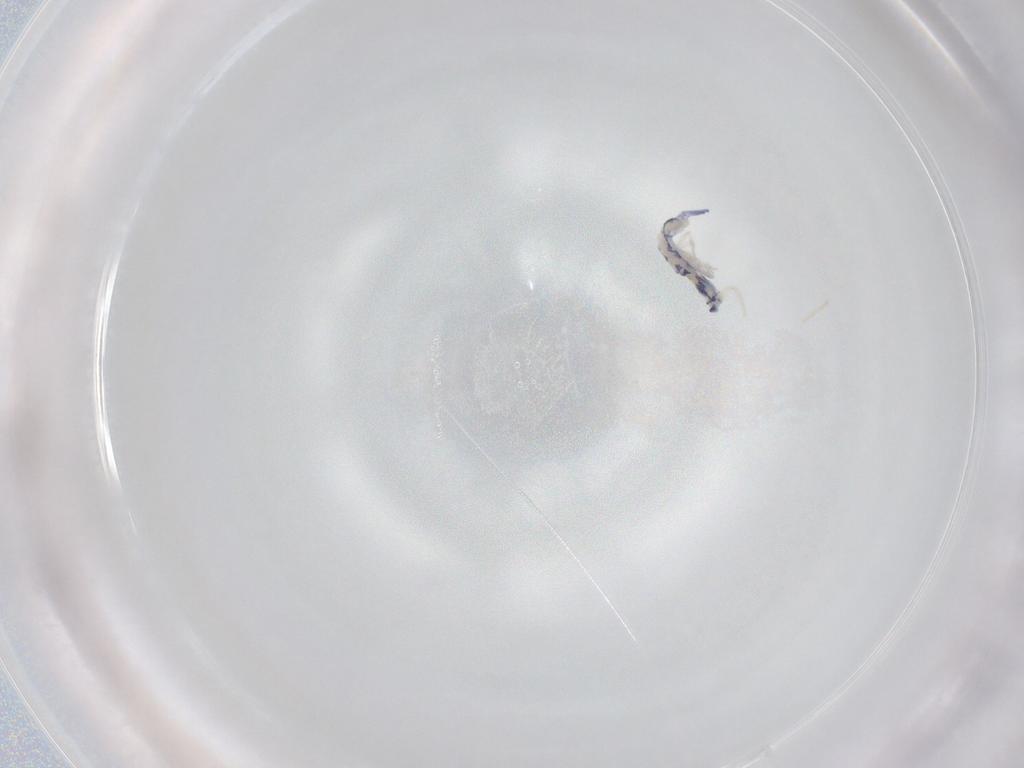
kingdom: Animalia
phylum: Arthropoda
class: Collembola
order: Entomobryomorpha
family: Entomobryidae
